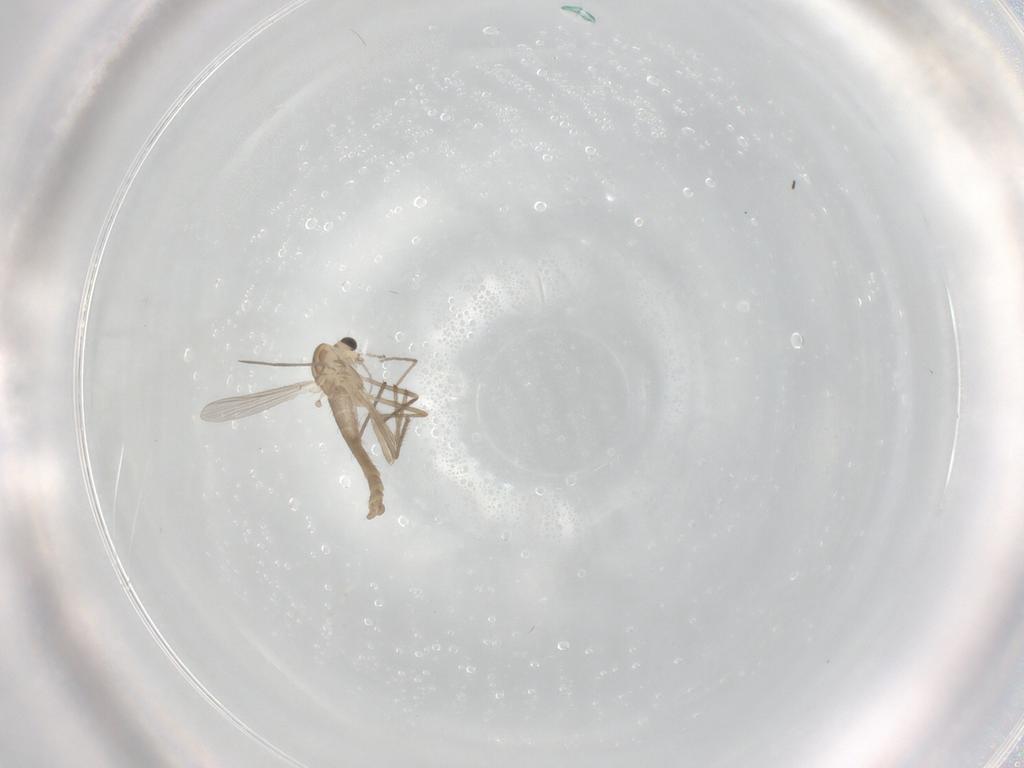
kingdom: Animalia
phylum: Arthropoda
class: Insecta
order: Diptera
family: Chironomidae
